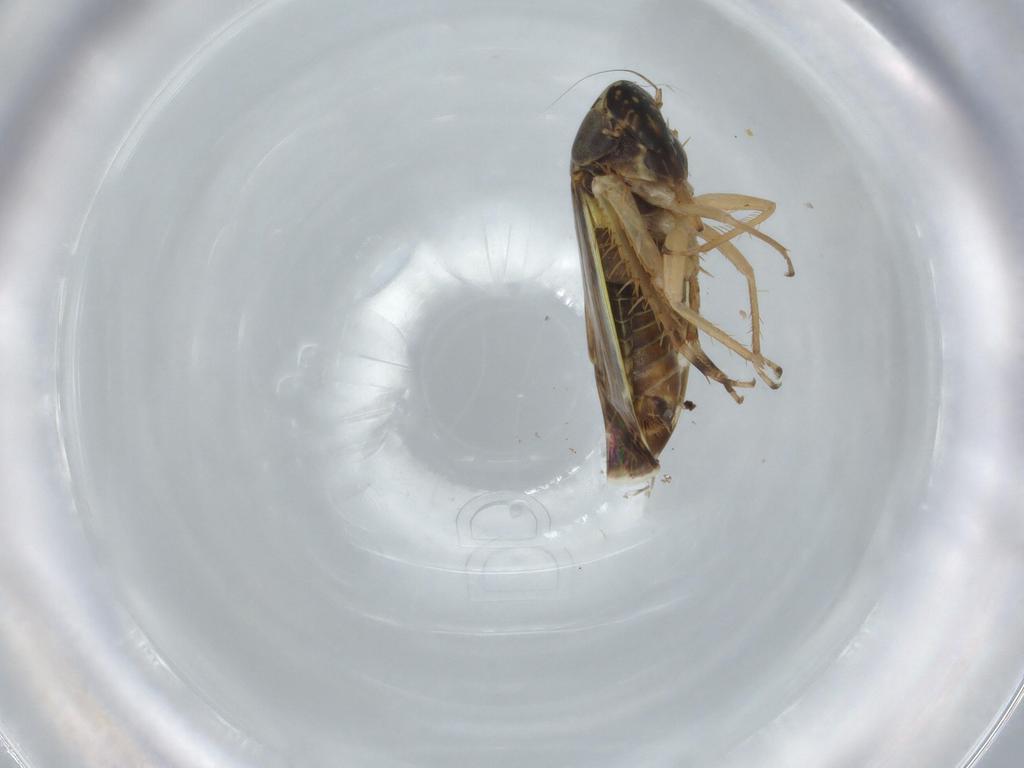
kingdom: Animalia
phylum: Arthropoda
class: Insecta
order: Hemiptera
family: Cicadellidae
